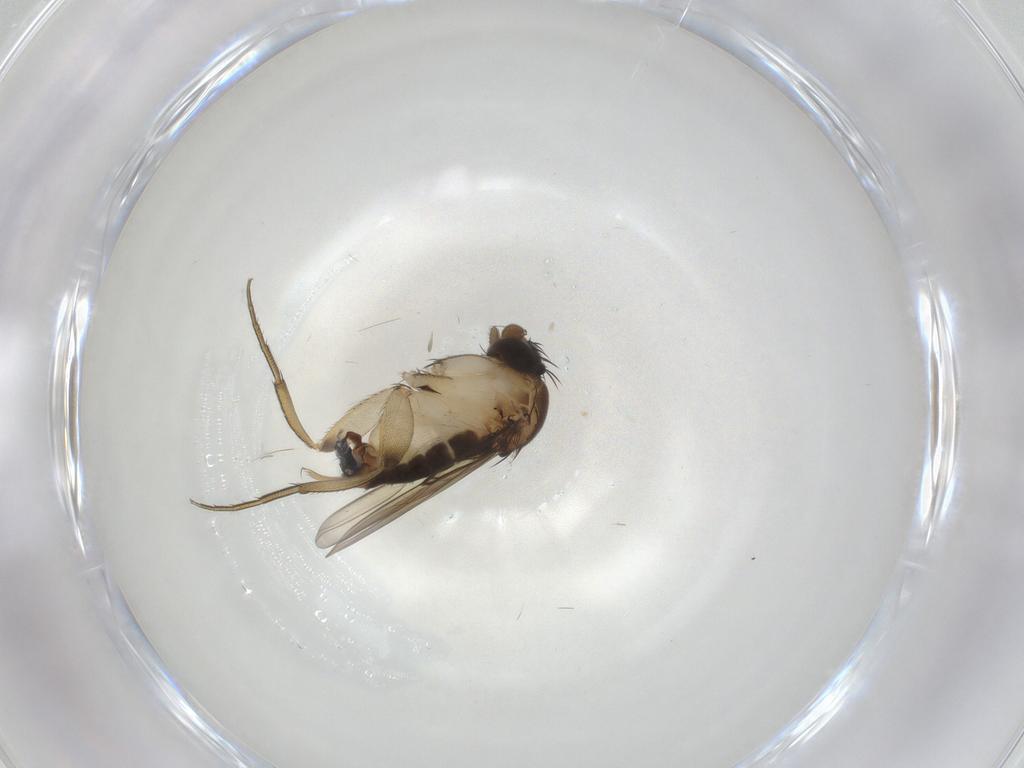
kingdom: Animalia
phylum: Arthropoda
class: Insecta
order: Diptera
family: Phoridae
